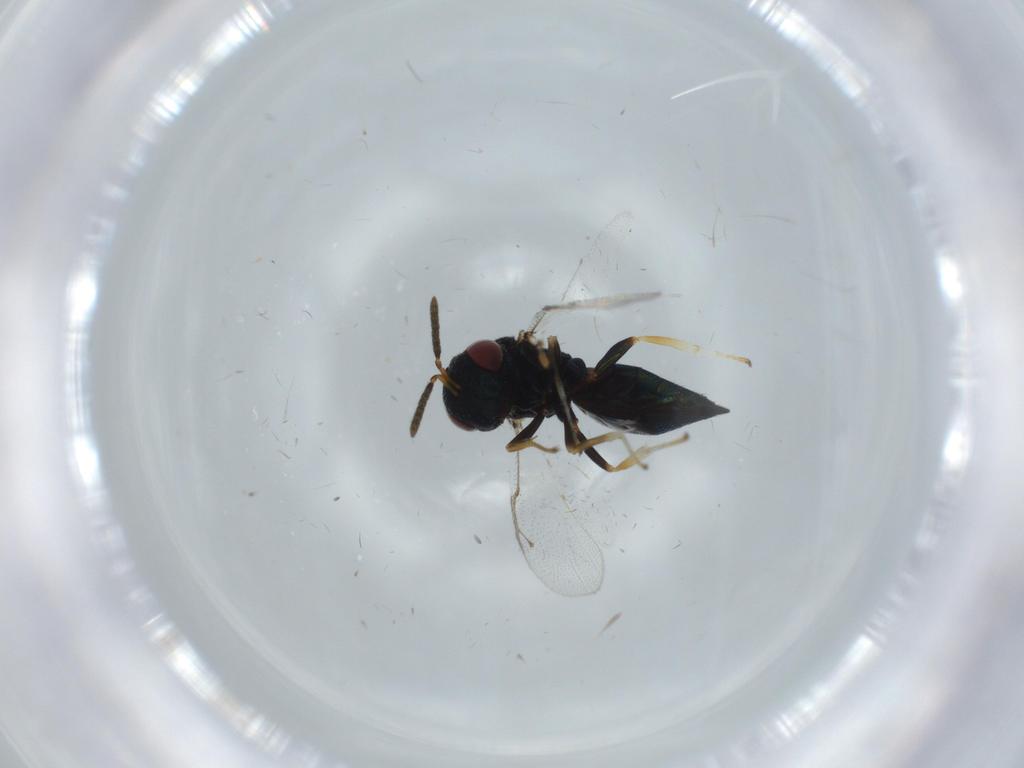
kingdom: Animalia
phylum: Arthropoda
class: Insecta
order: Hymenoptera
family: Pteromalidae
